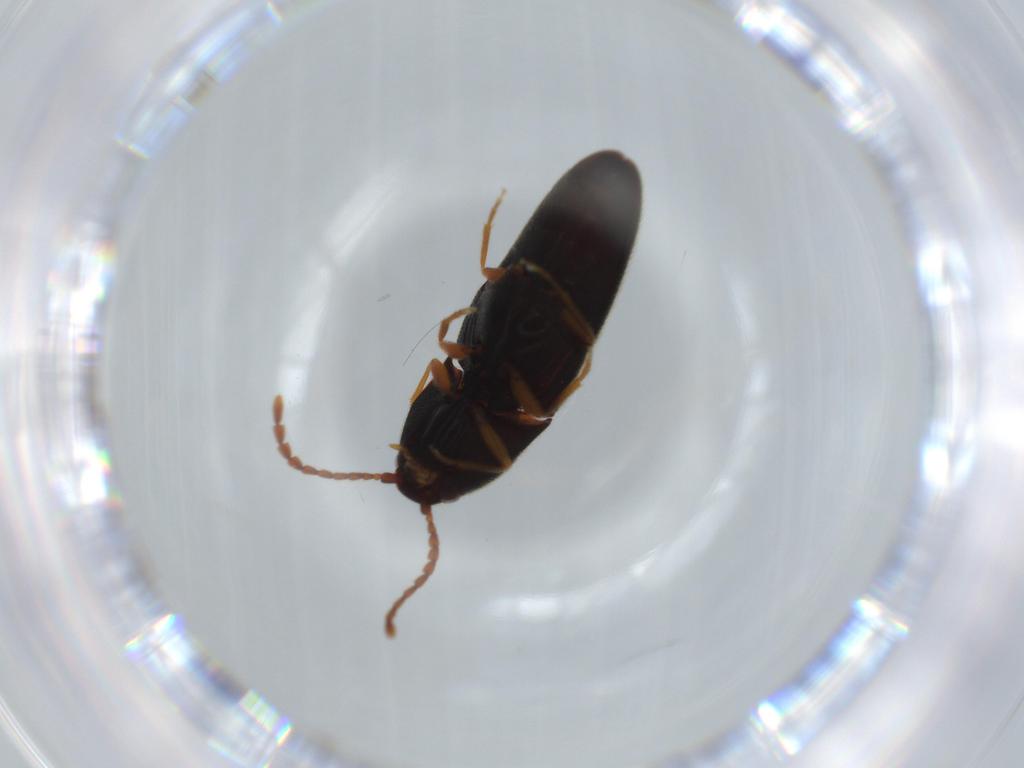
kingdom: Animalia
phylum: Arthropoda
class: Insecta
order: Coleoptera
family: Elateridae
